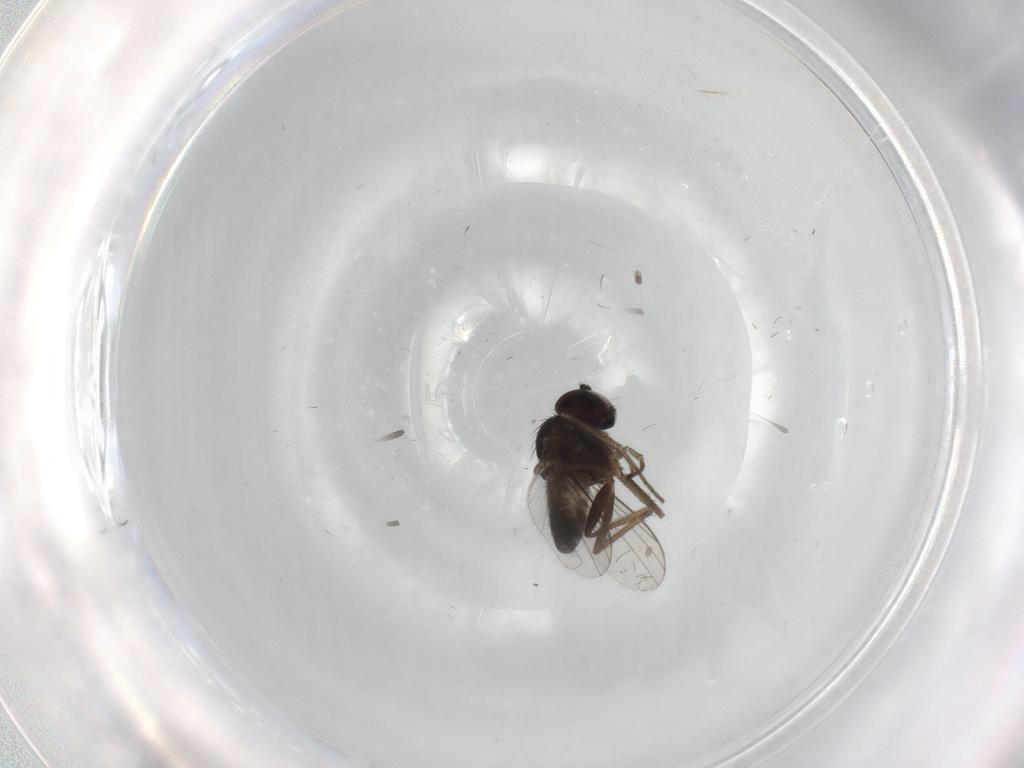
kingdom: Animalia
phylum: Arthropoda
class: Insecta
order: Diptera
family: Dolichopodidae
